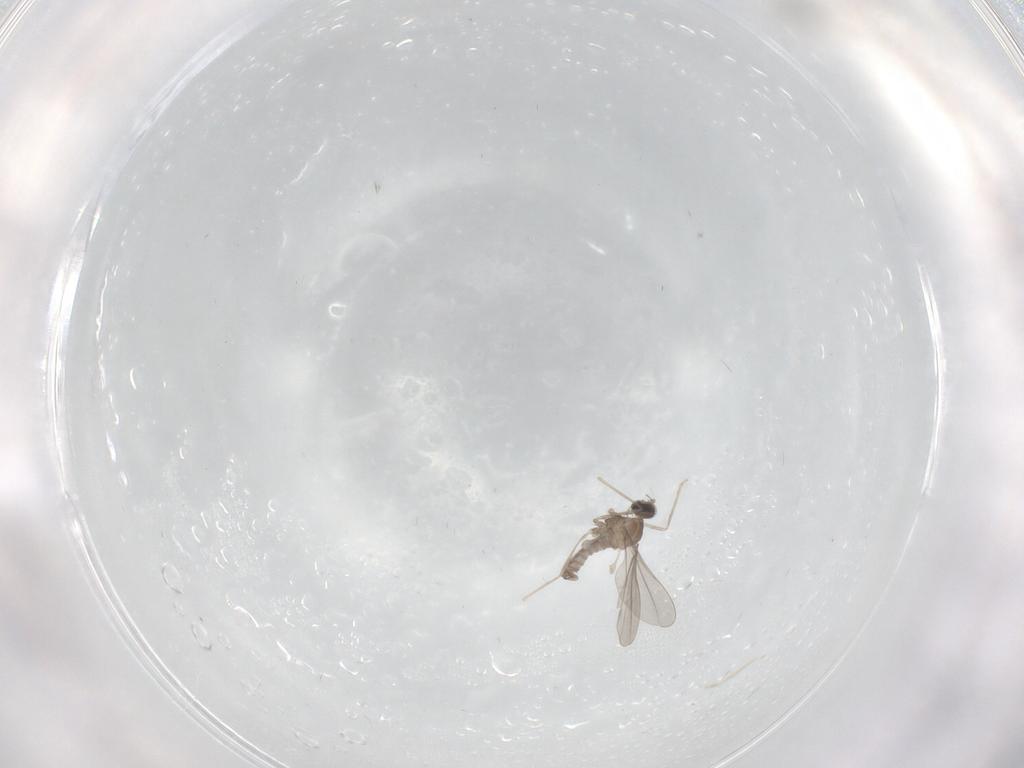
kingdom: Animalia
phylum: Arthropoda
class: Insecta
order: Diptera
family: Cecidomyiidae
